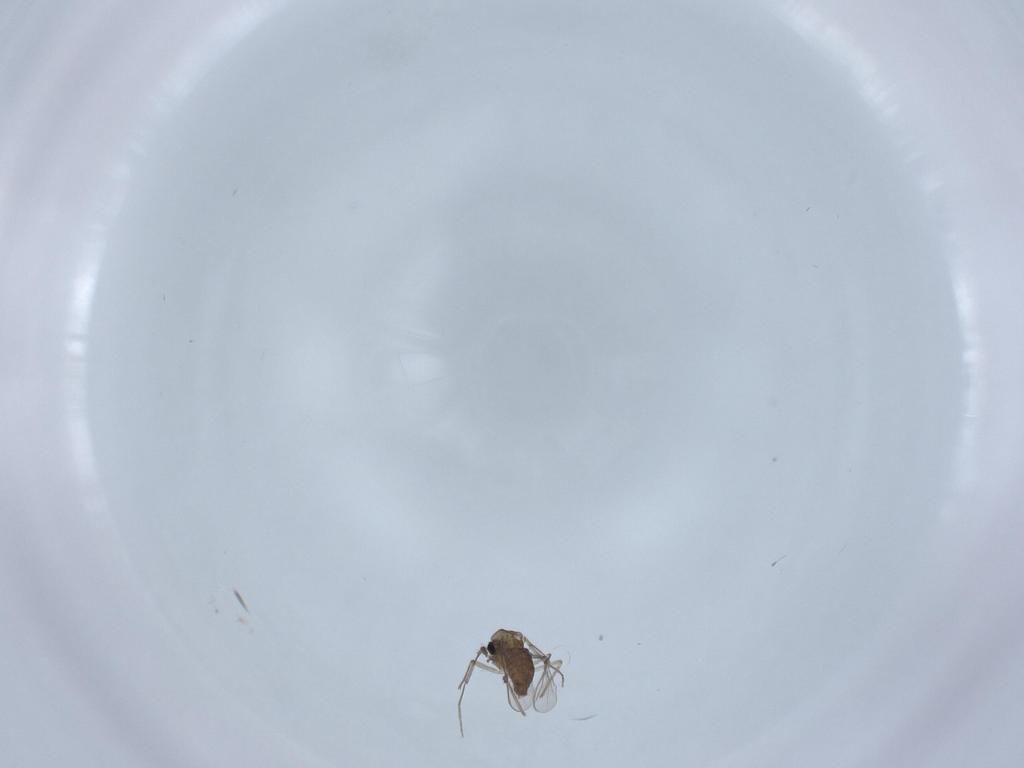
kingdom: Animalia
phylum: Arthropoda
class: Insecta
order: Diptera
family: Chironomidae
